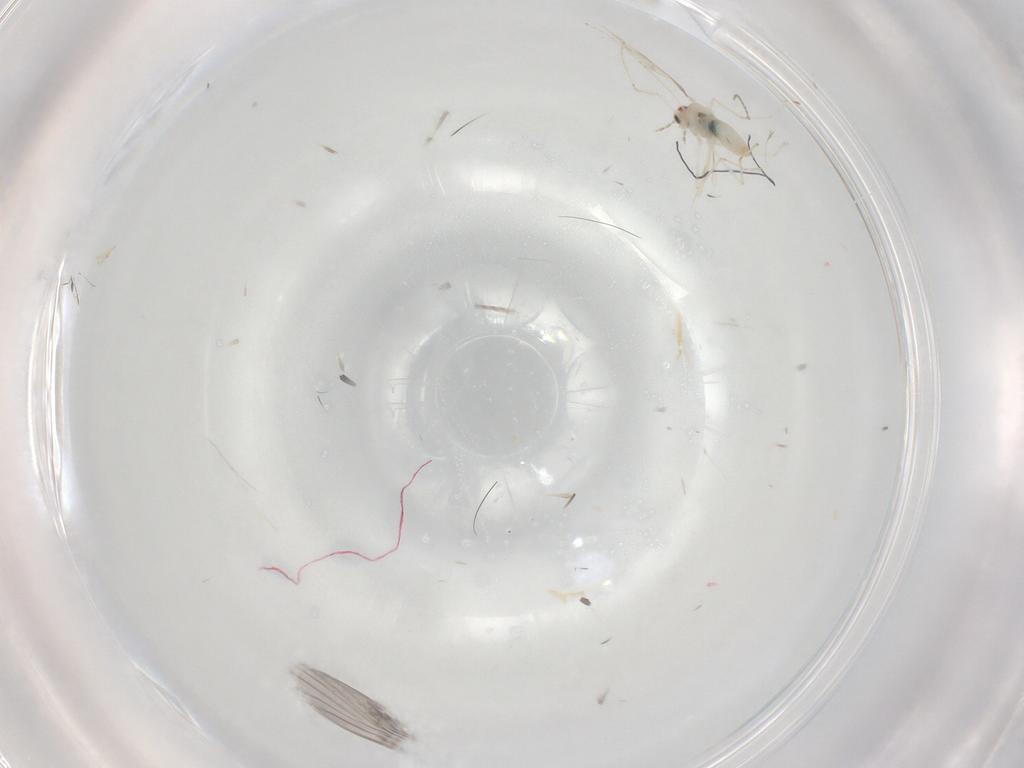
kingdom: Animalia
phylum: Arthropoda
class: Insecta
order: Diptera
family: Cecidomyiidae
